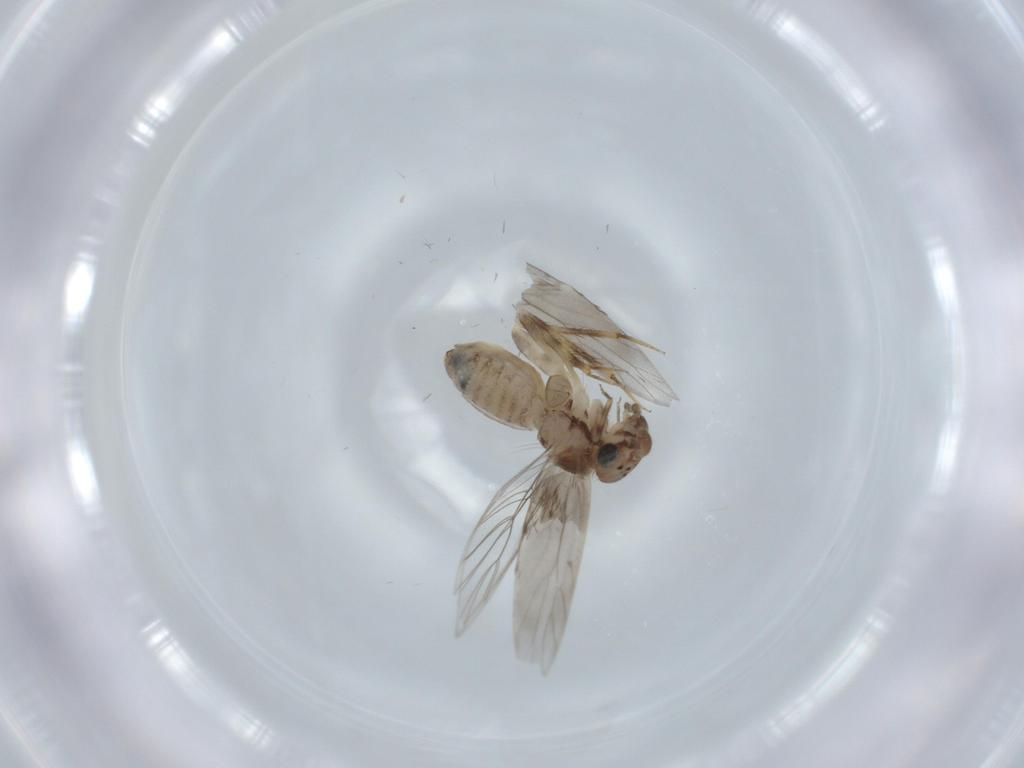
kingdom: Animalia
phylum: Arthropoda
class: Insecta
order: Psocodea
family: Lepidopsocidae
